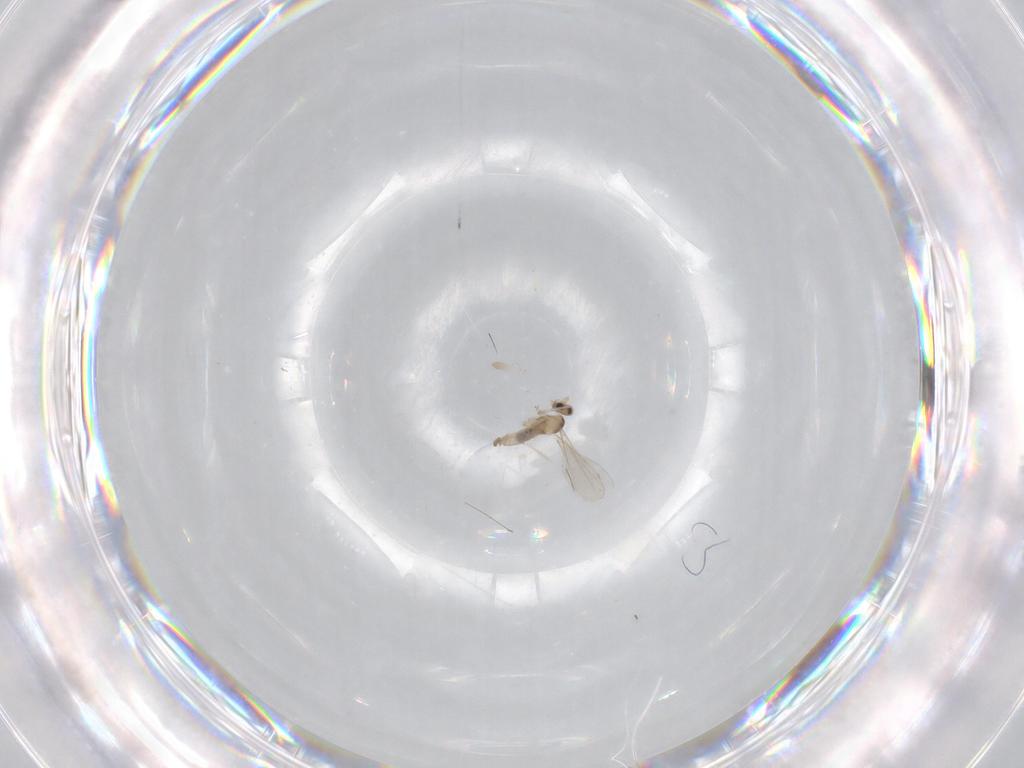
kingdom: Animalia
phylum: Arthropoda
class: Insecta
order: Diptera
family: Cecidomyiidae
